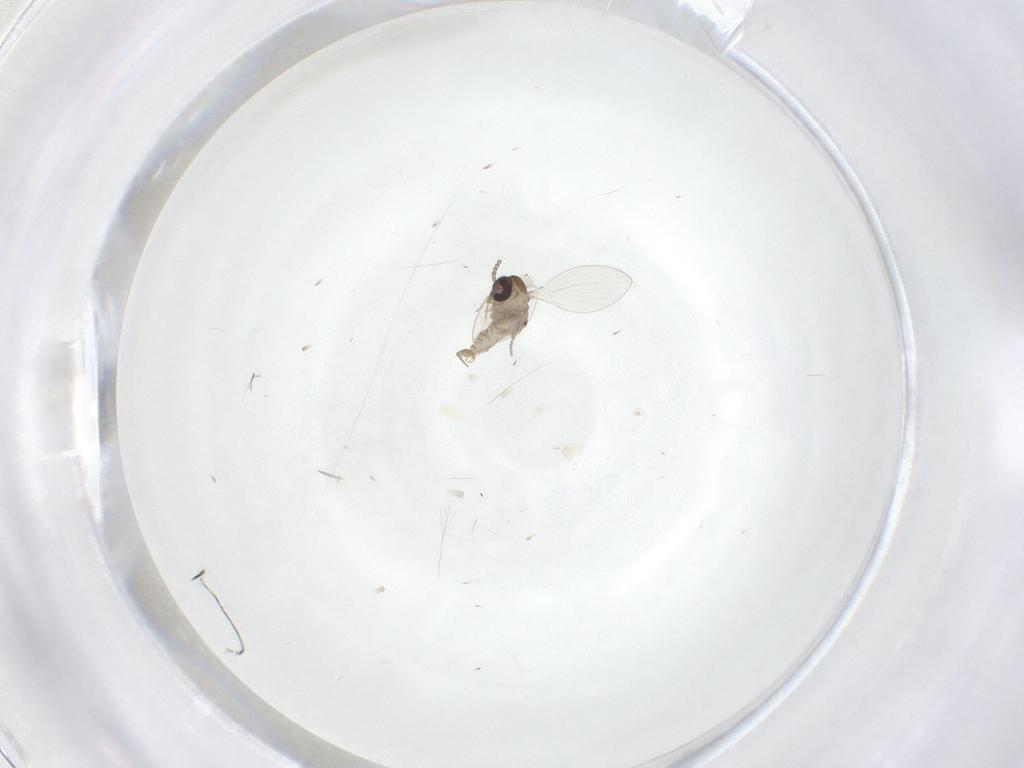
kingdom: Animalia
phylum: Arthropoda
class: Insecta
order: Diptera
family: Psychodidae
